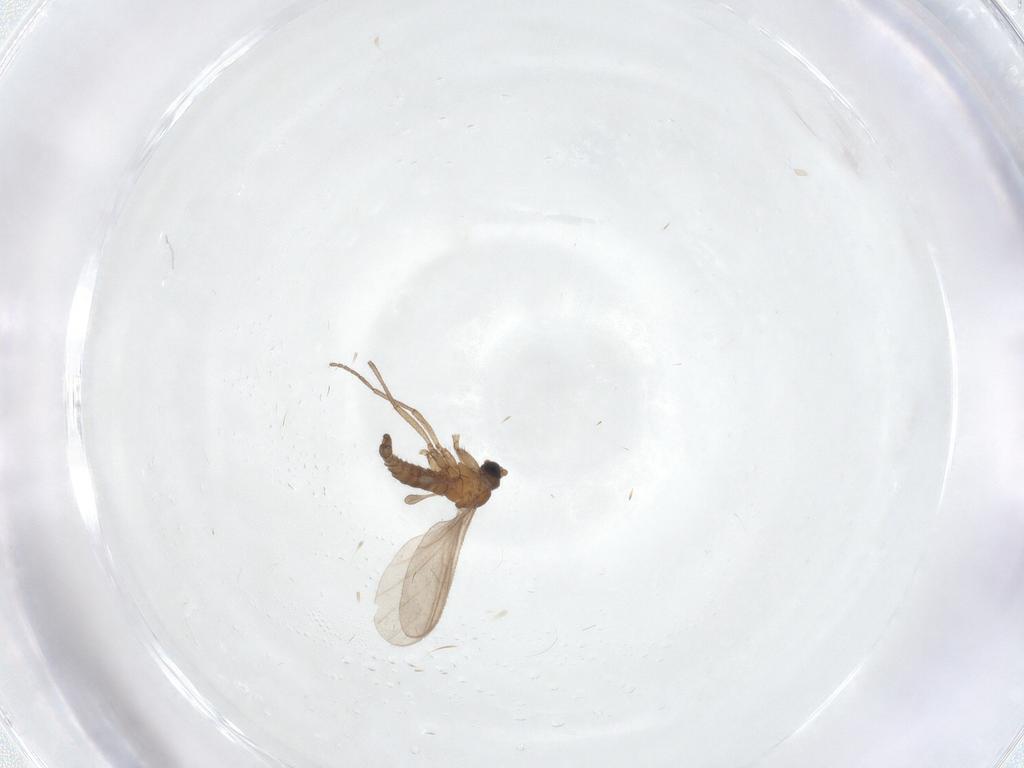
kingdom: Animalia
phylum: Arthropoda
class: Insecta
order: Diptera
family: Sciaridae
